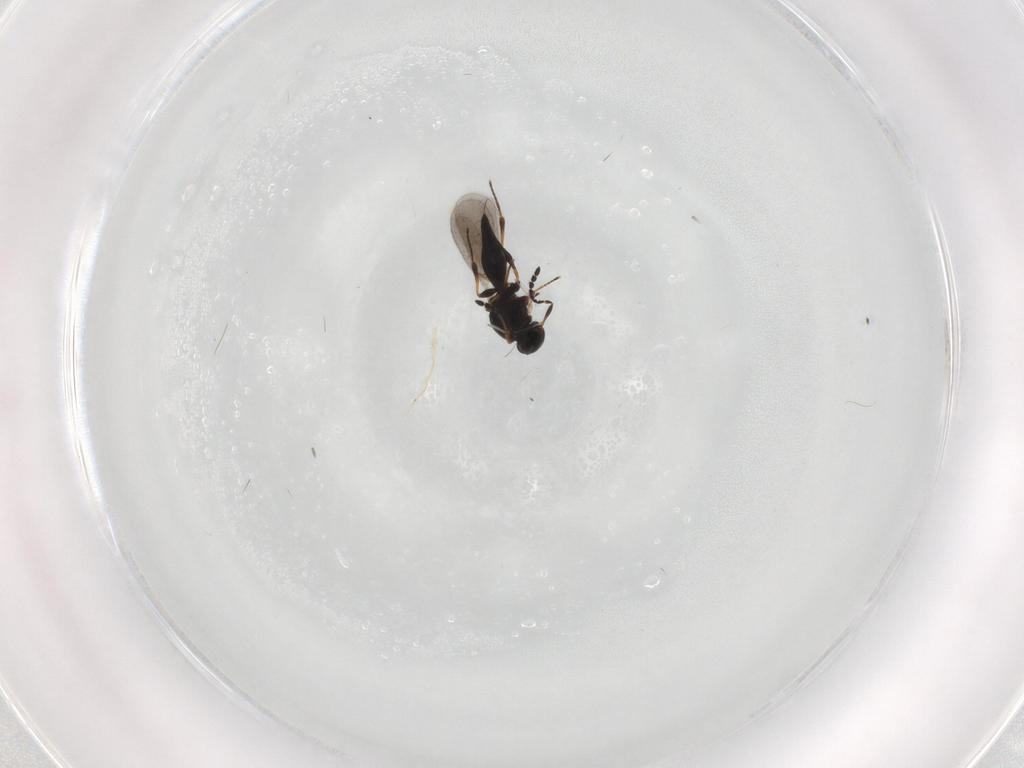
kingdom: Animalia
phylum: Arthropoda
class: Insecta
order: Hymenoptera
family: Platygastridae
